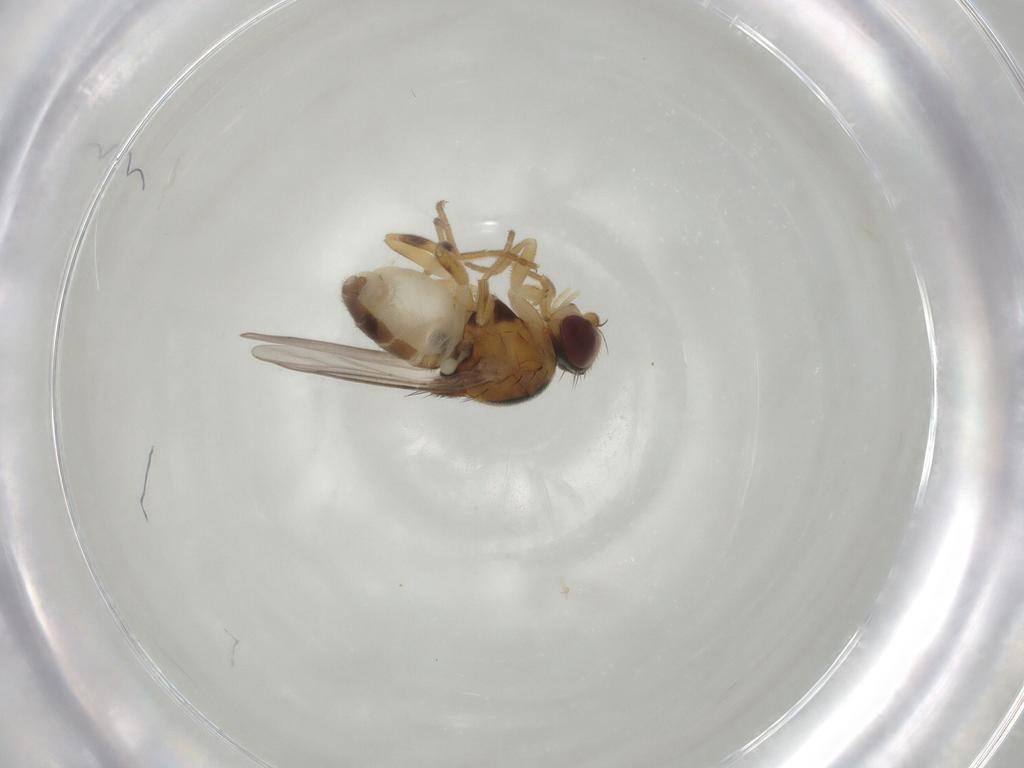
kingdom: Animalia
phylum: Arthropoda
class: Insecta
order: Diptera
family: Chloropidae
